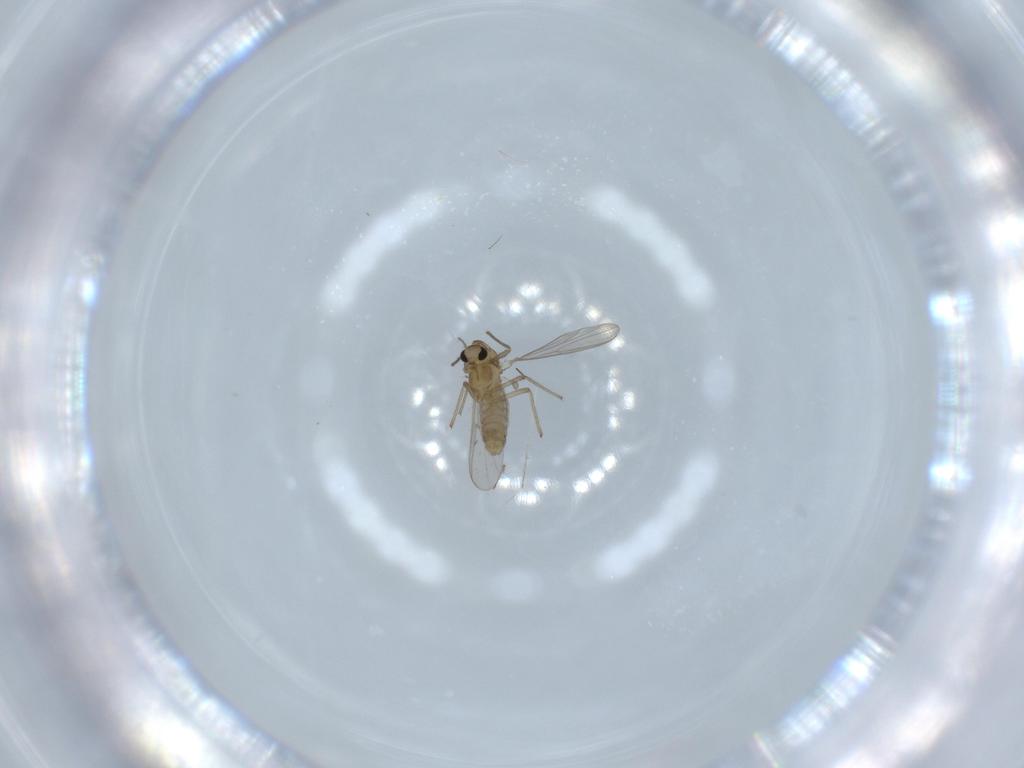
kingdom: Animalia
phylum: Arthropoda
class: Insecta
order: Diptera
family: Chironomidae
